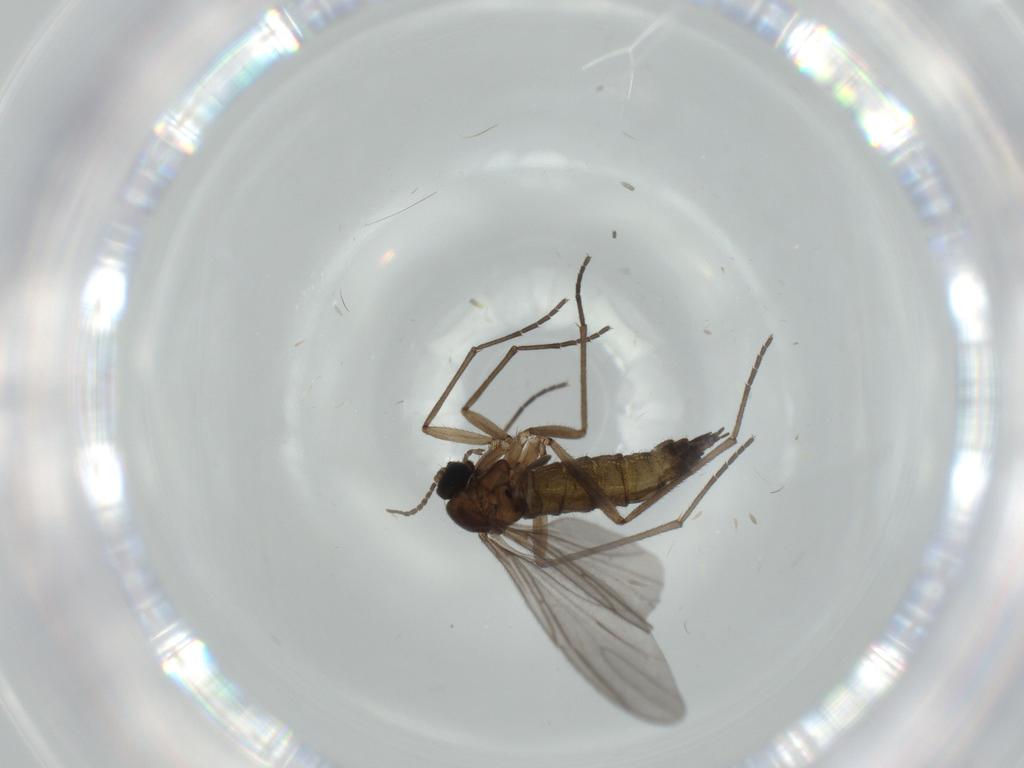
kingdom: Animalia
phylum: Arthropoda
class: Insecta
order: Diptera
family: Sciaridae
